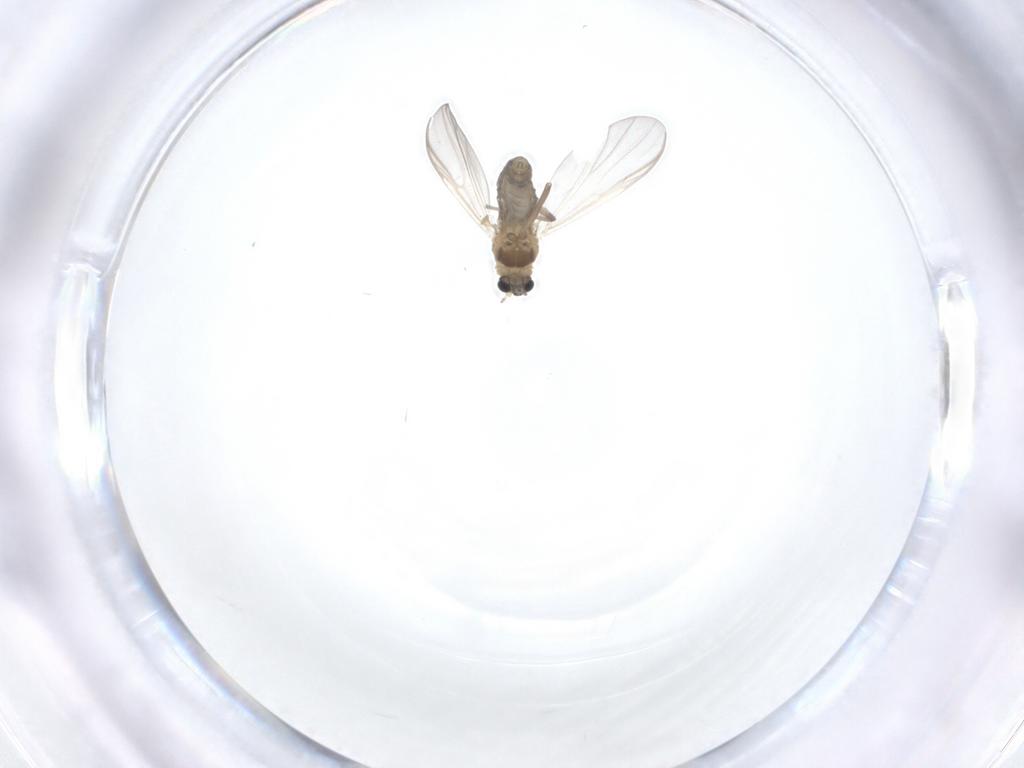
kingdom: Animalia
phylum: Arthropoda
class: Insecta
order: Diptera
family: Chironomidae
